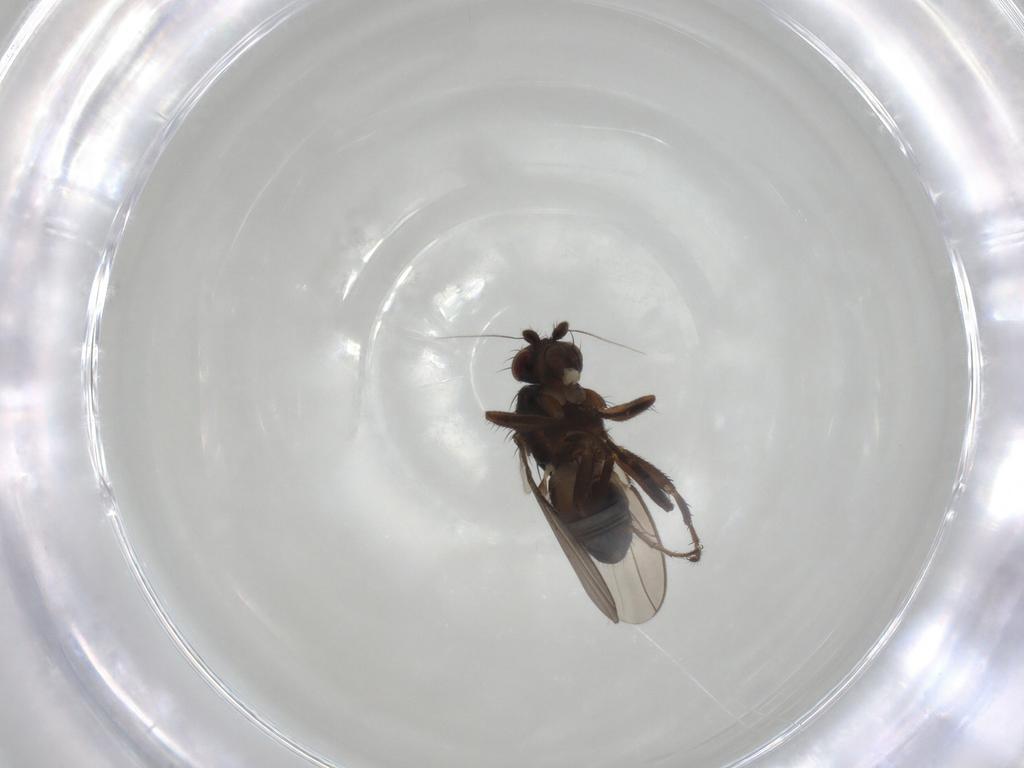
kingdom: Animalia
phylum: Arthropoda
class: Insecta
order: Diptera
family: Sphaeroceridae
